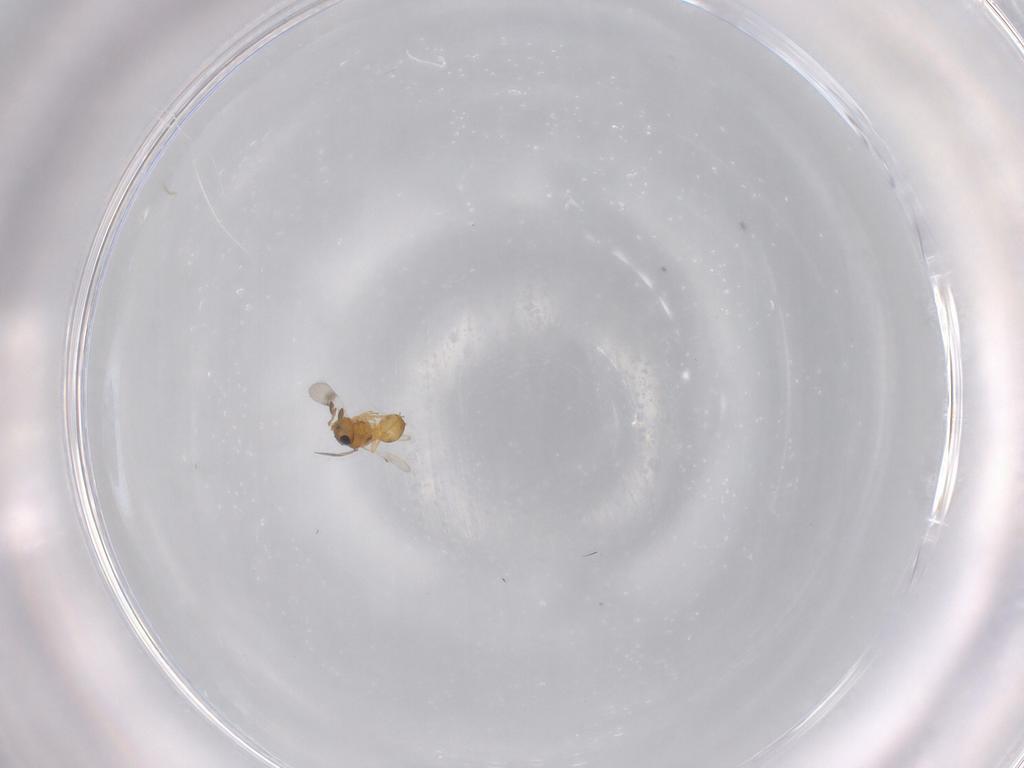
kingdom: Animalia
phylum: Arthropoda
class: Insecta
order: Hymenoptera
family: Scelionidae
